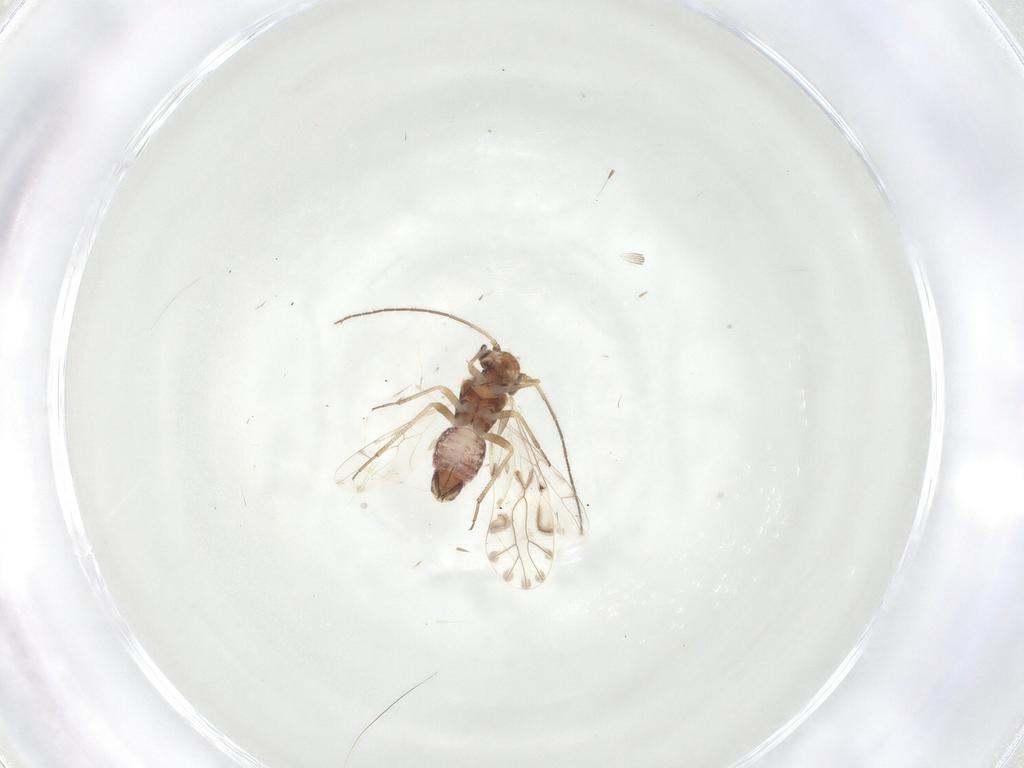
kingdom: Animalia
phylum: Arthropoda
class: Insecta
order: Psocodea
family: Lachesillidae
